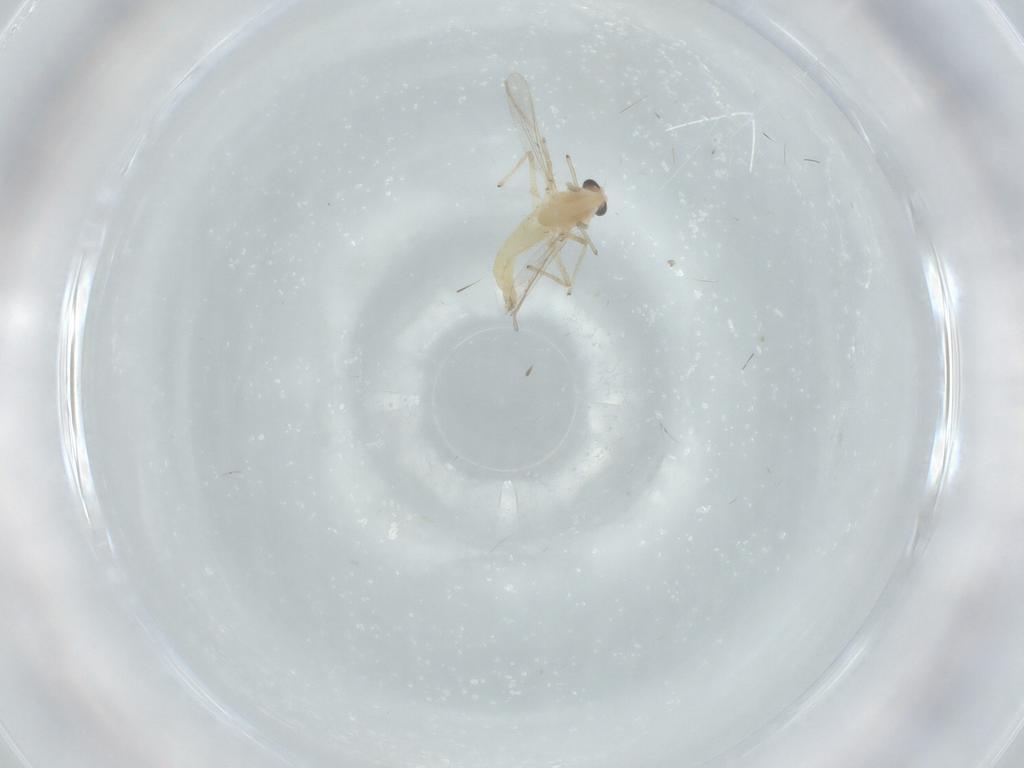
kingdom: Animalia
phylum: Arthropoda
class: Insecta
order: Diptera
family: Chironomidae
